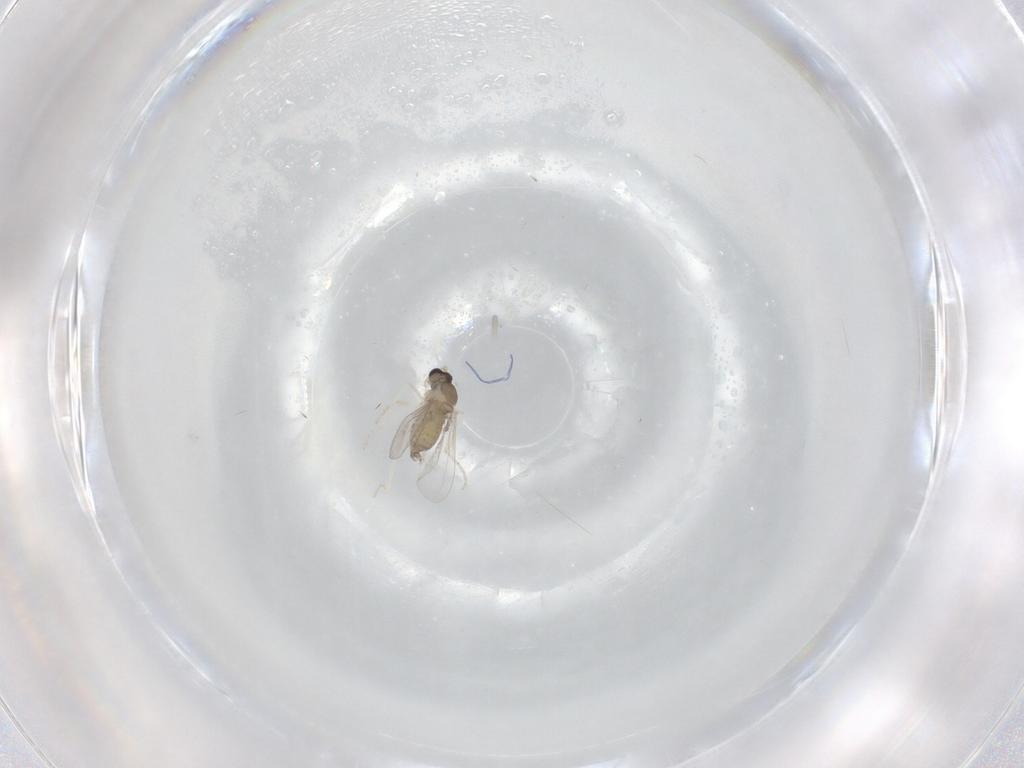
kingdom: Animalia
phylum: Arthropoda
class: Insecta
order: Diptera
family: Cecidomyiidae
